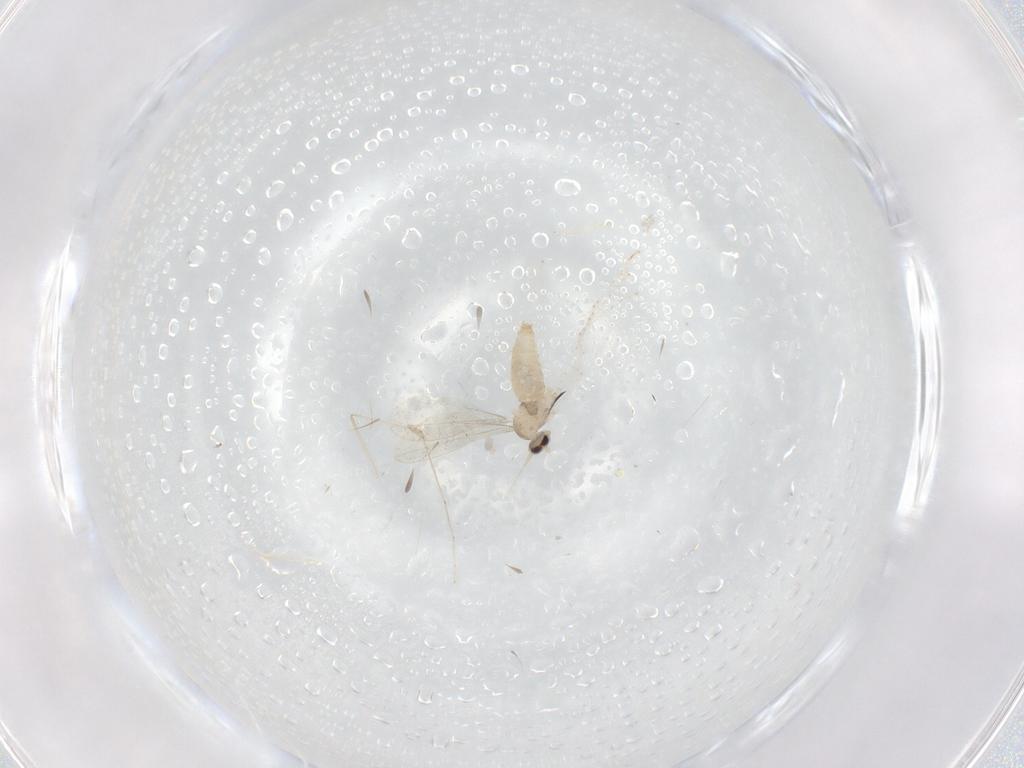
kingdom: Animalia
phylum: Arthropoda
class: Insecta
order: Diptera
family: Cecidomyiidae
